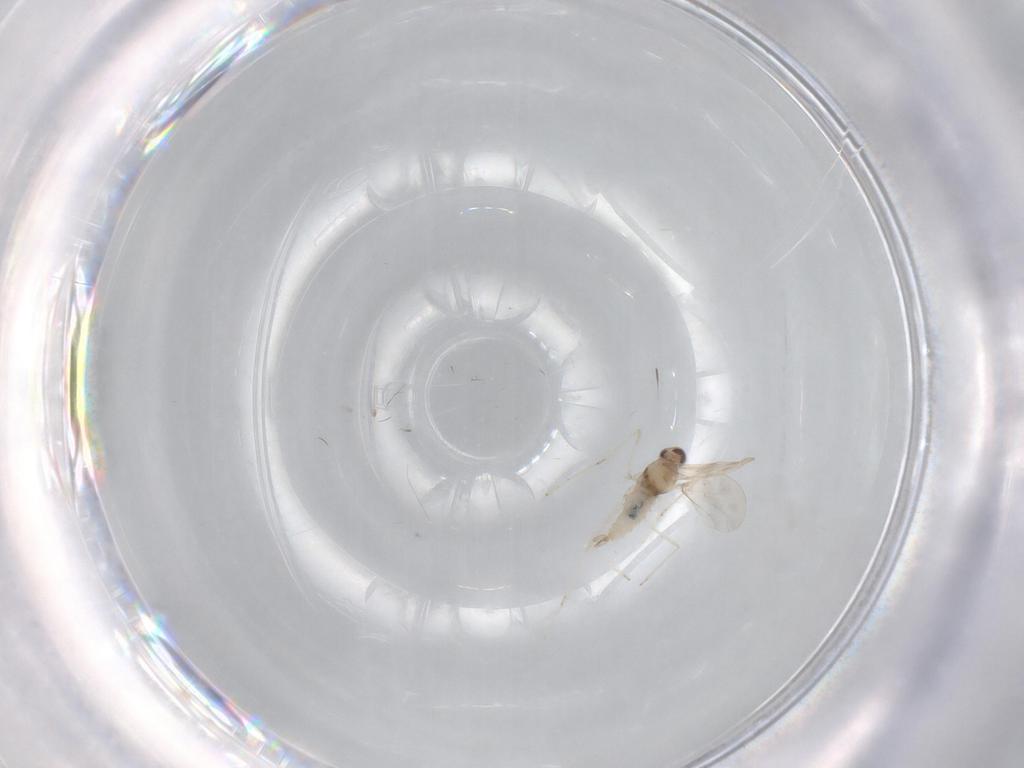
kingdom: Animalia
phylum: Arthropoda
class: Insecta
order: Diptera
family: Cecidomyiidae
